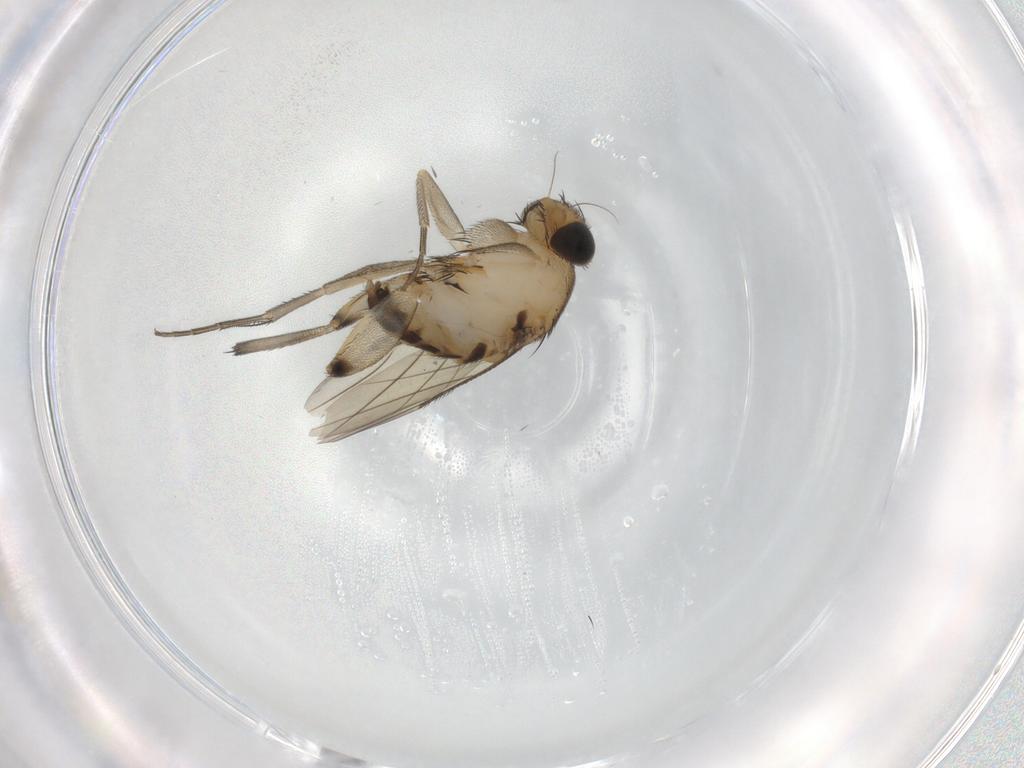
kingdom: Animalia
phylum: Arthropoda
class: Insecta
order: Diptera
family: Phoridae
